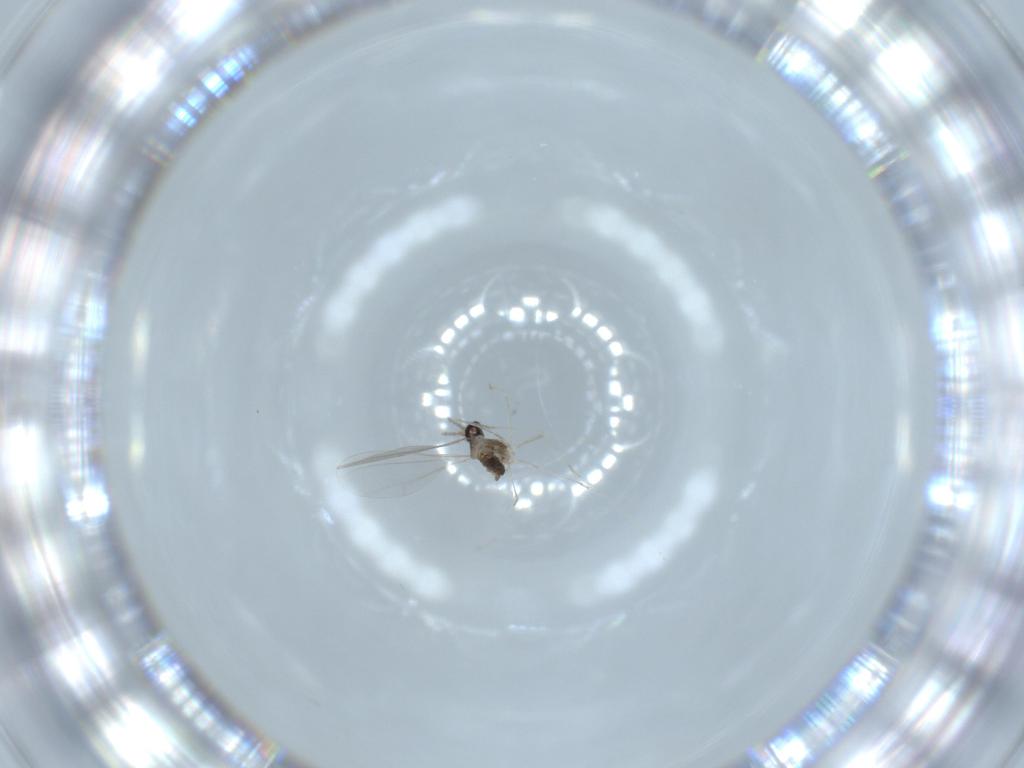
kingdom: Animalia
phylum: Arthropoda
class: Insecta
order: Diptera
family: Cecidomyiidae
